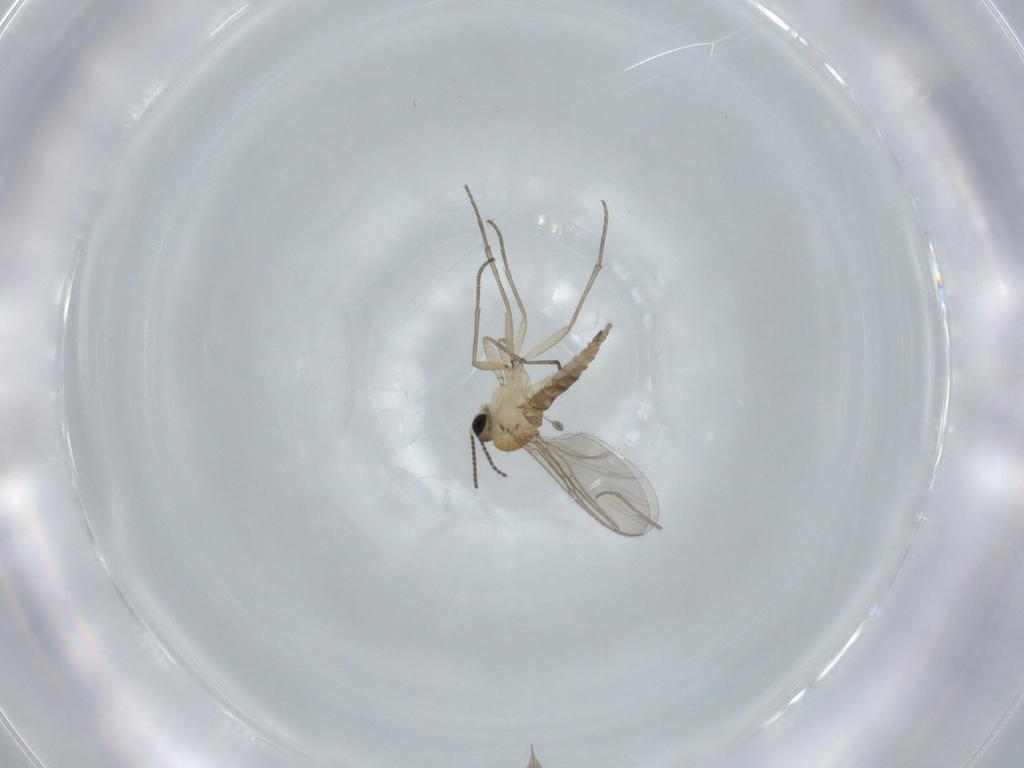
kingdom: Animalia
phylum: Arthropoda
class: Insecta
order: Diptera
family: Sciaridae
